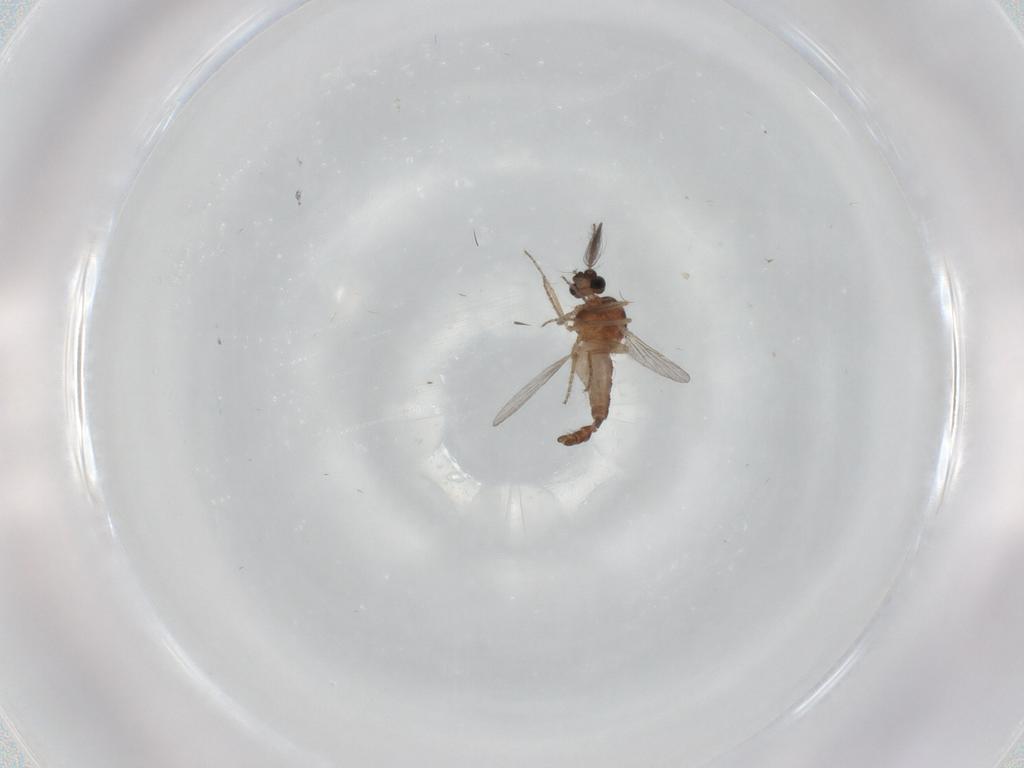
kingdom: Animalia
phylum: Arthropoda
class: Insecta
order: Diptera
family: Ceratopogonidae
